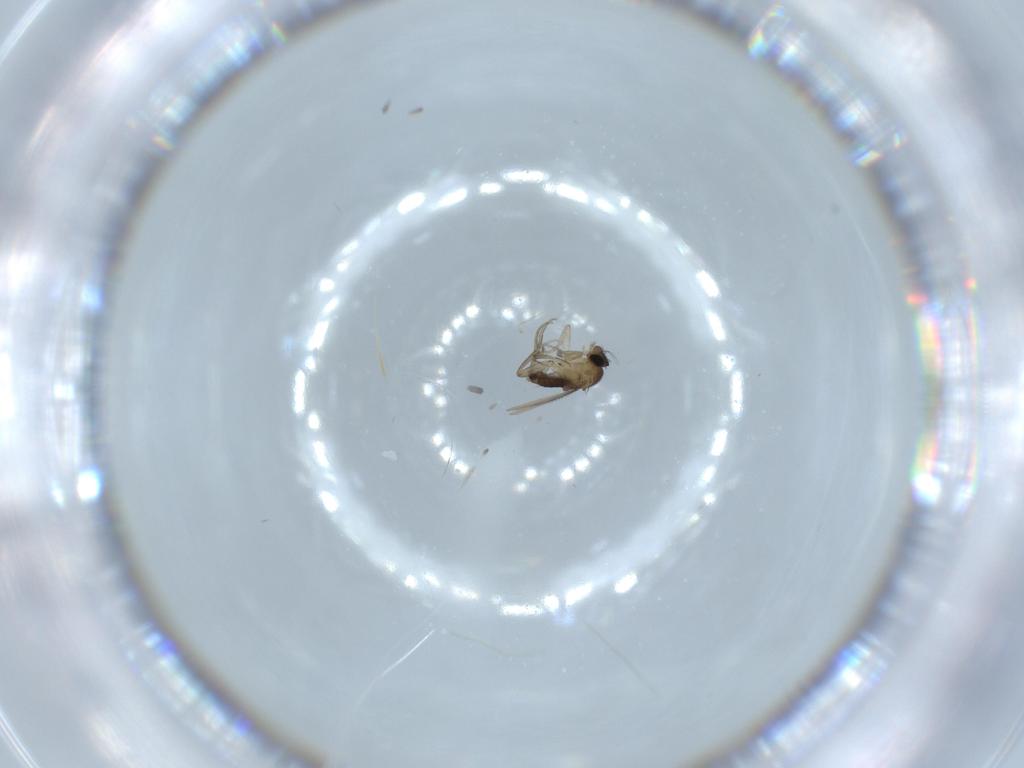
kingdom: Animalia
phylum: Arthropoda
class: Insecta
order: Diptera
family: Phoridae
